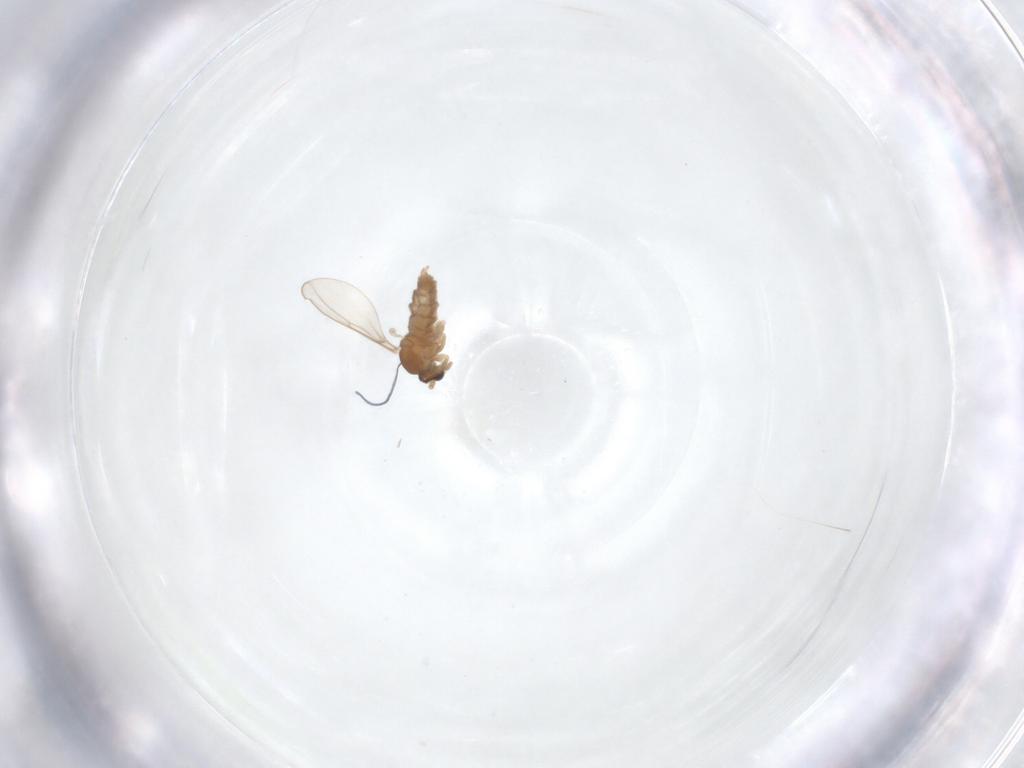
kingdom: Animalia
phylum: Arthropoda
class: Insecta
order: Diptera
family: Cecidomyiidae
